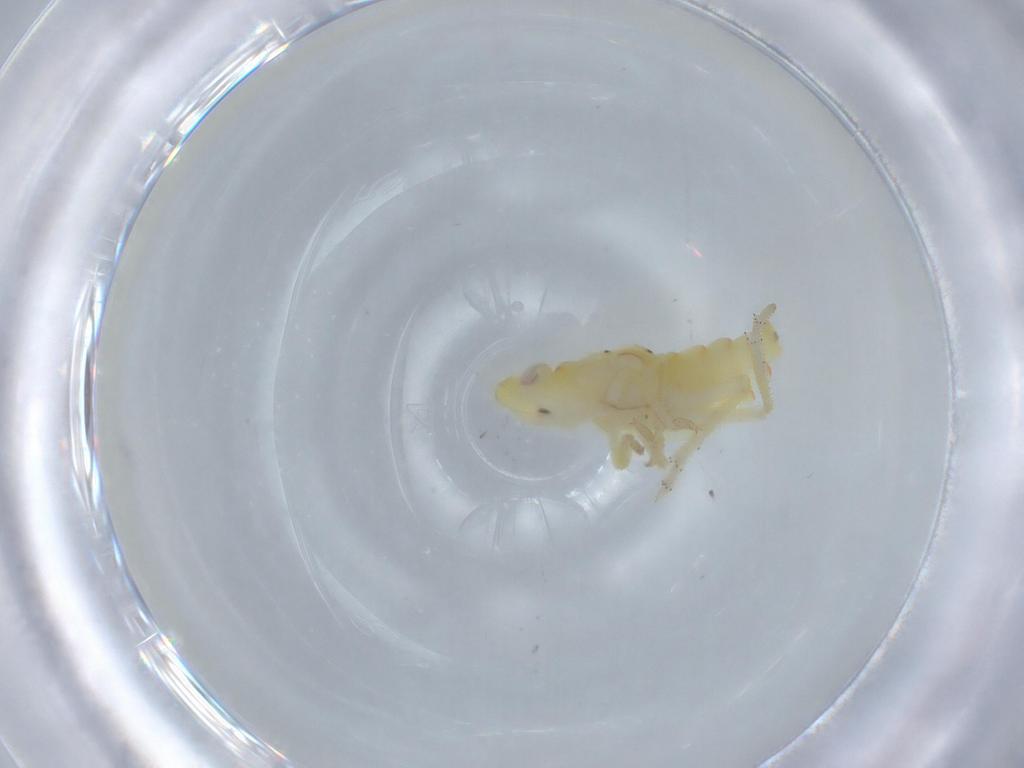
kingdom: Animalia
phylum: Arthropoda
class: Insecta
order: Hemiptera
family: Tropiduchidae
